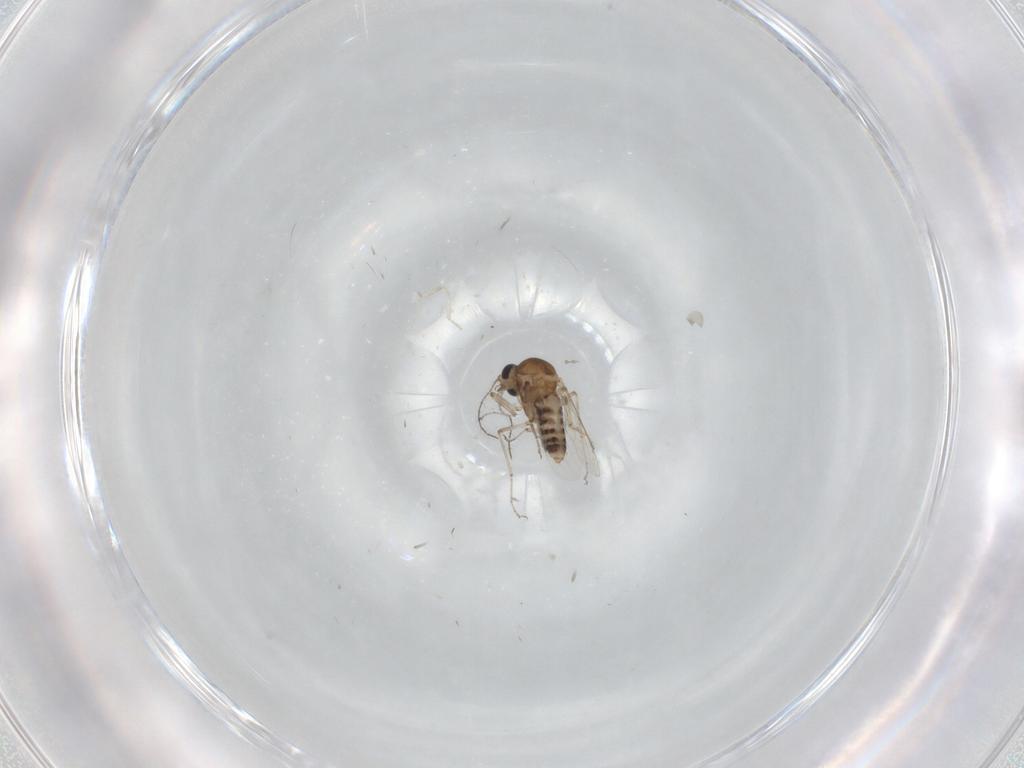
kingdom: Animalia
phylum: Arthropoda
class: Insecta
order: Diptera
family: Cecidomyiidae
